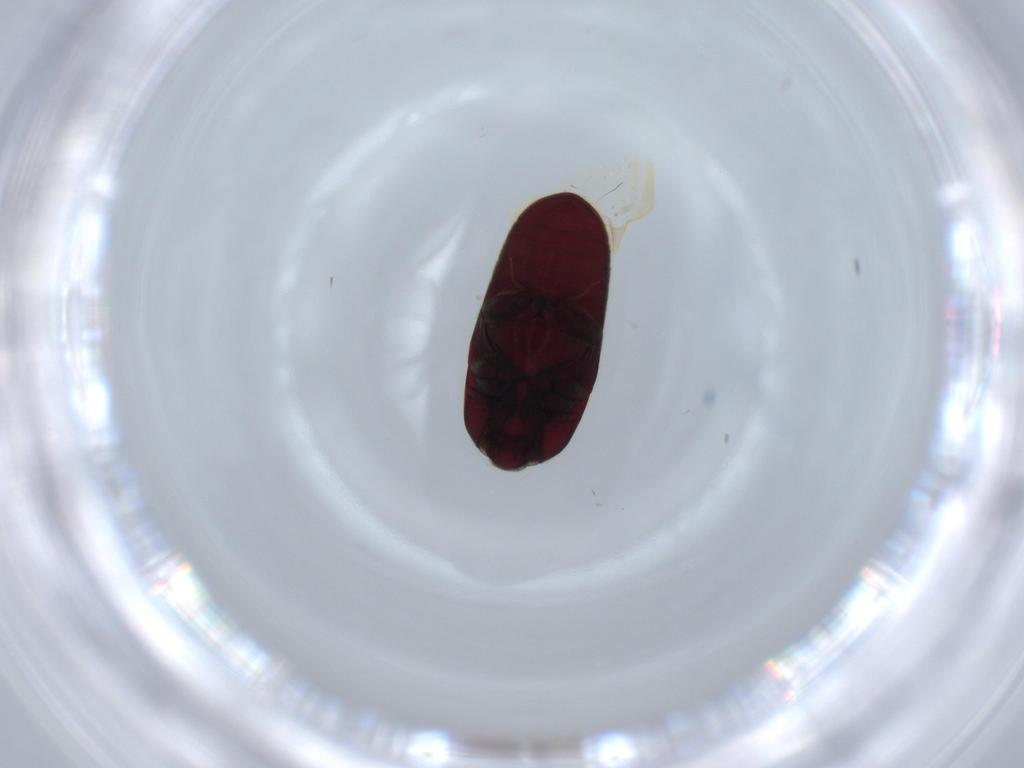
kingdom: Animalia
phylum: Arthropoda
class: Insecta
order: Coleoptera
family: Throscidae
